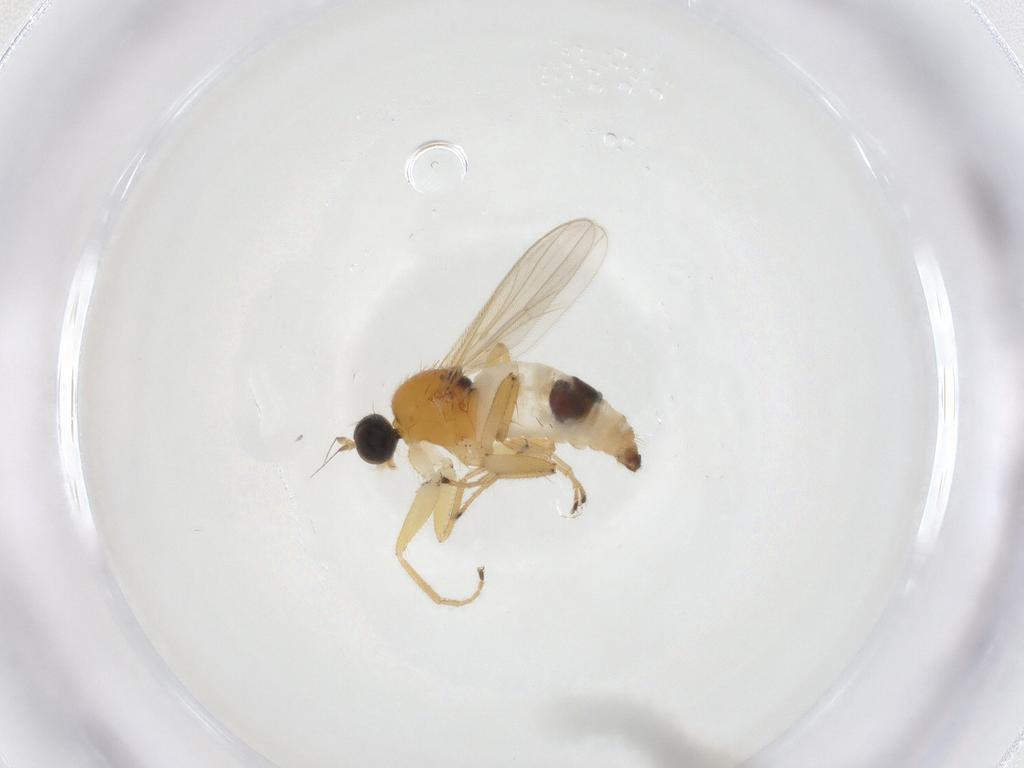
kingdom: Animalia
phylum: Arthropoda
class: Insecta
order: Diptera
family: Hybotidae
